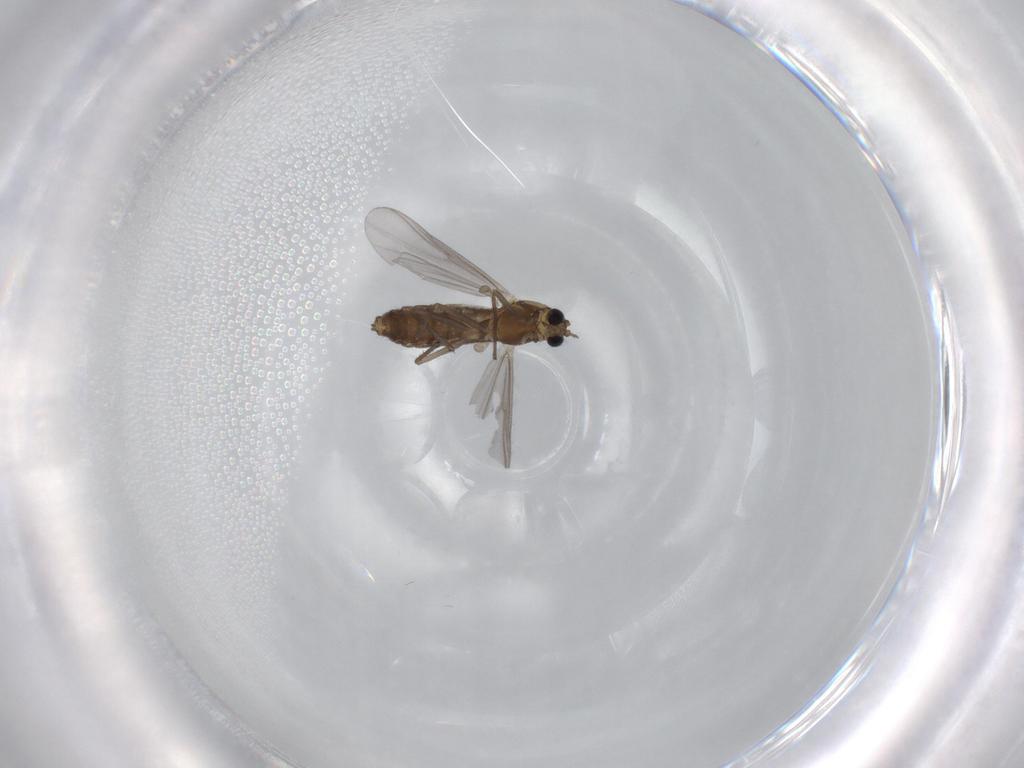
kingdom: Animalia
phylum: Arthropoda
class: Insecta
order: Diptera
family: Chironomidae
